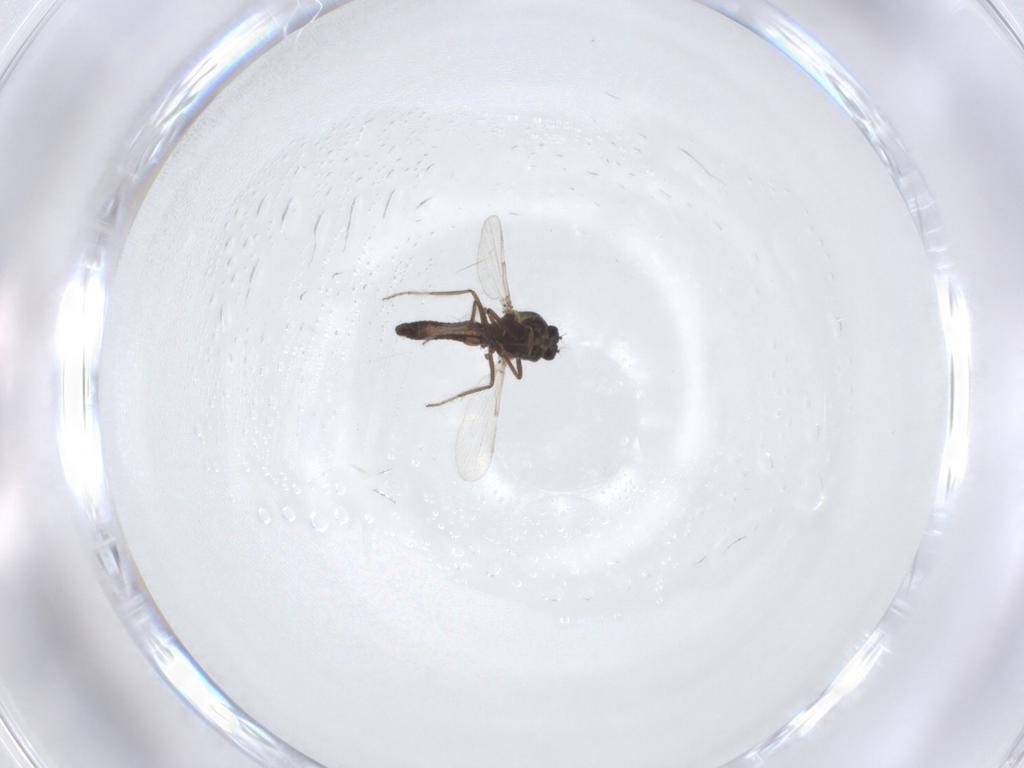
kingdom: Animalia
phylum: Arthropoda
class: Insecta
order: Diptera
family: Ceratopogonidae
